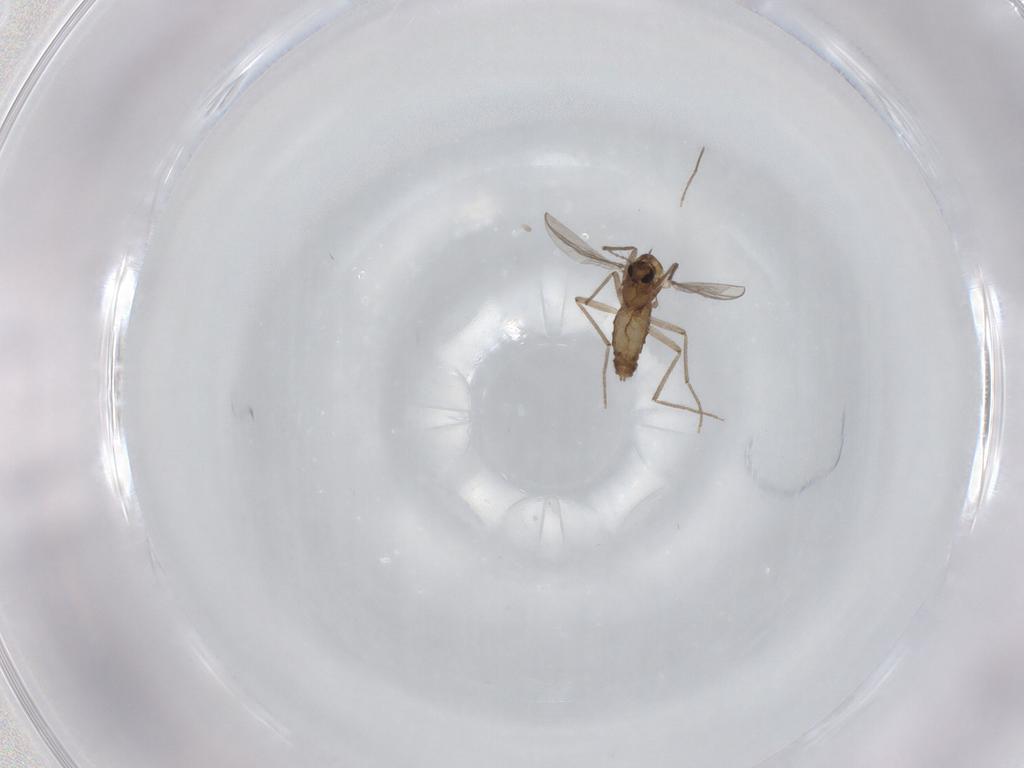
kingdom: Animalia
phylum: Arthropoda
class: Insecta
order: Diptera
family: Chironomidae
